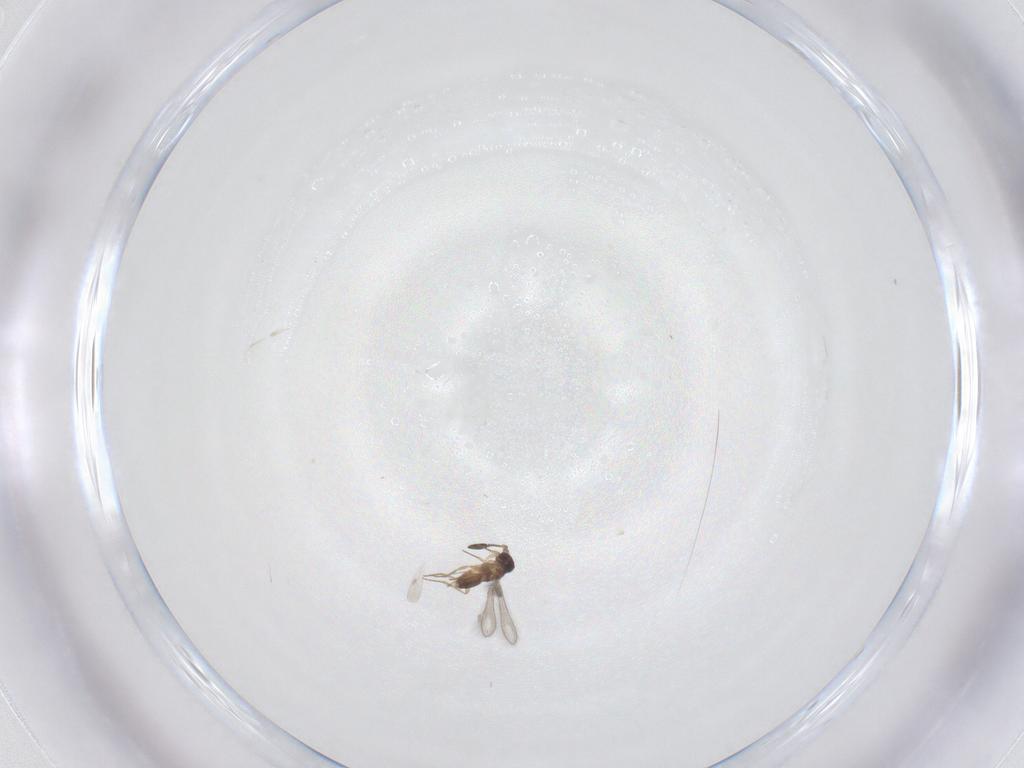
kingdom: Animalia
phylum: Arthropoda
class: Insecta
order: Hymenoptera
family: Mymaridae
